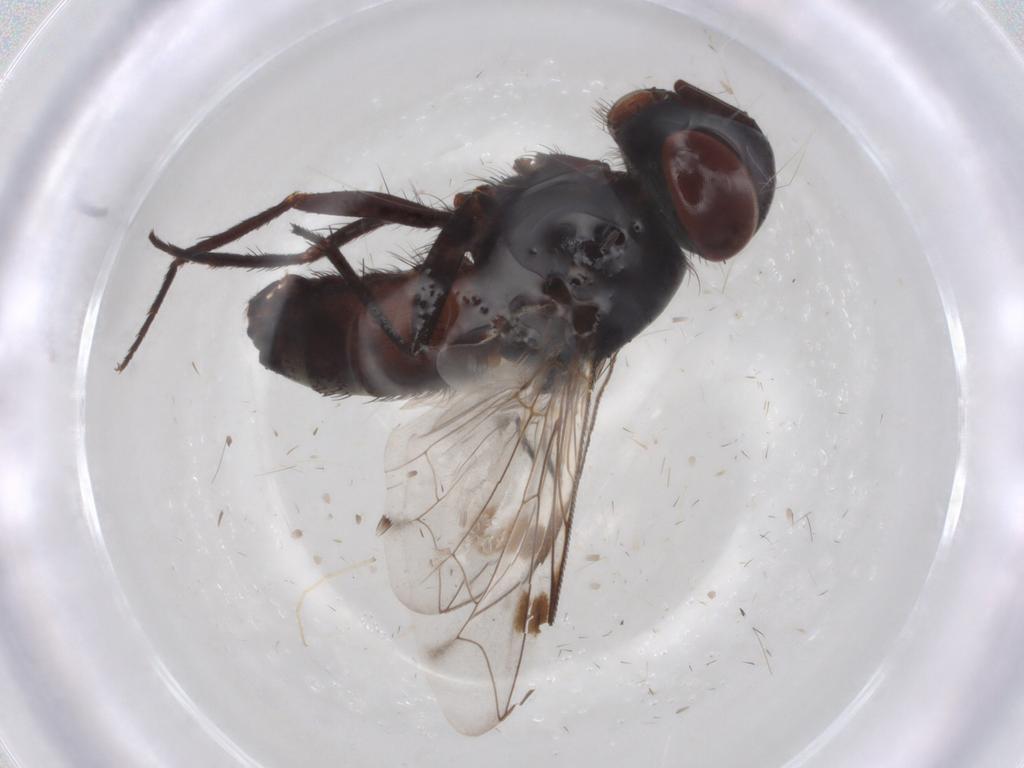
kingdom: Animalia
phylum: Arthropoda
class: Insecta
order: Diptera
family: Sarcophagidae
